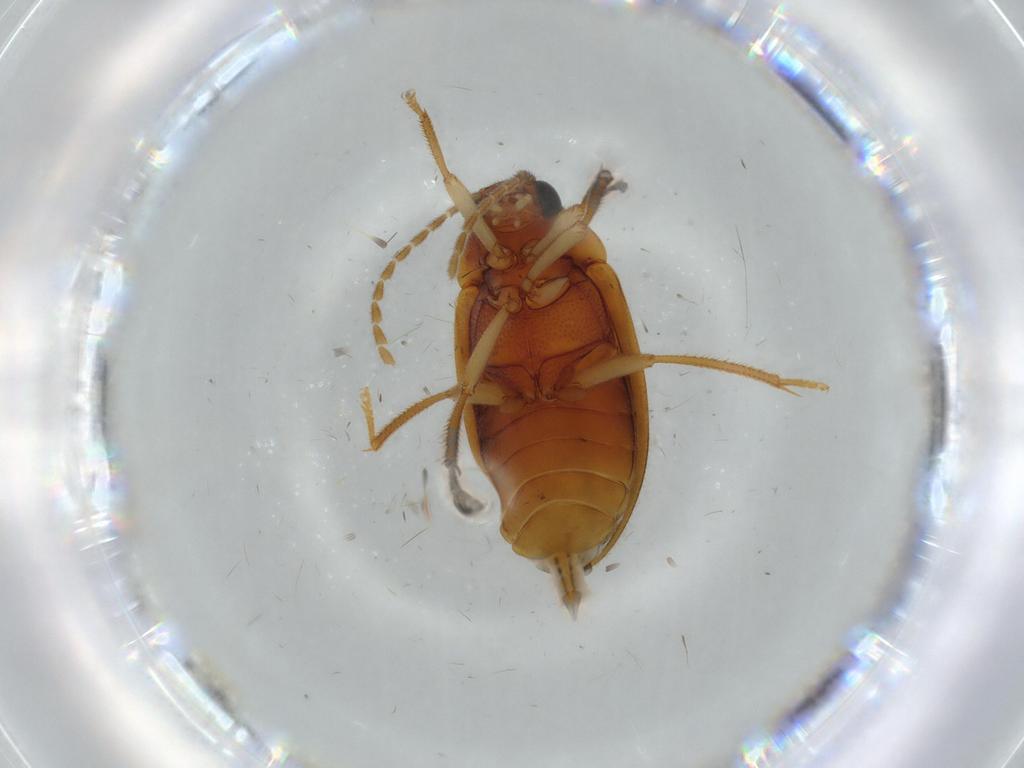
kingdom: Animalia
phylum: Arthropoda
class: Insecta
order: Coleoptera
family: Ptilodactylidae
